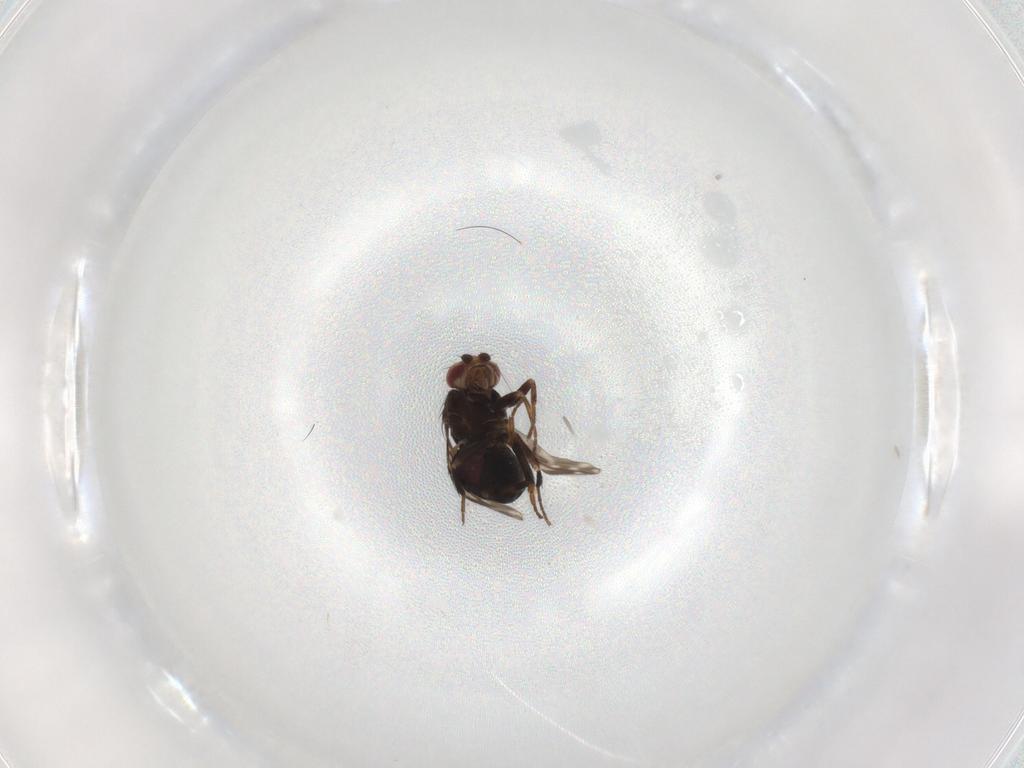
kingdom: Animalia
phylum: Arthropoda
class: Insecta
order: Diptera
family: Sphaeroceridae
